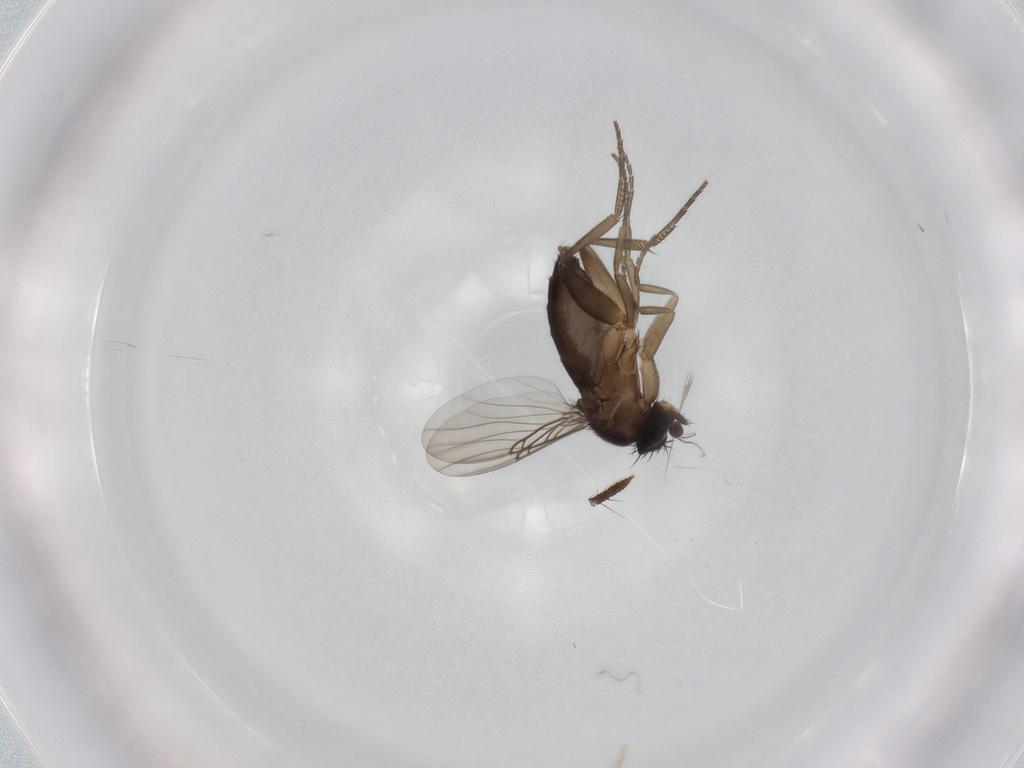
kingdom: Animalia
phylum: Arthropoda
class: Insecta
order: Diptera
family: Phoridae
